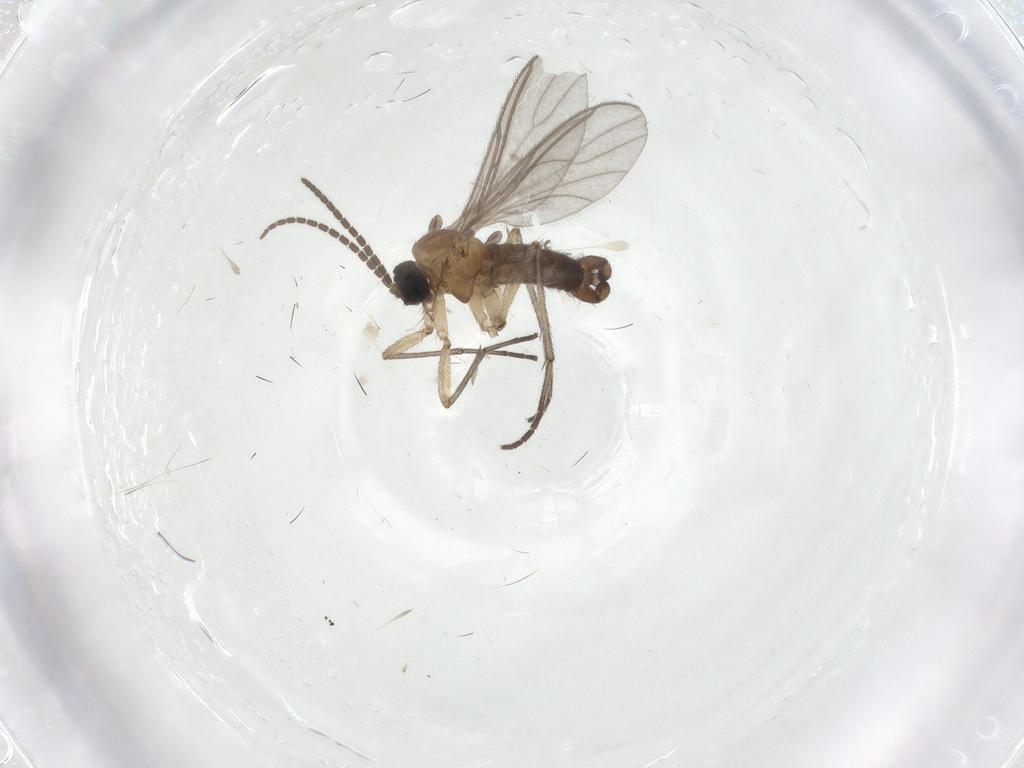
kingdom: Animalia
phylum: Arthropoda
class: Insecta
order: Diptera
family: Sciaridae
